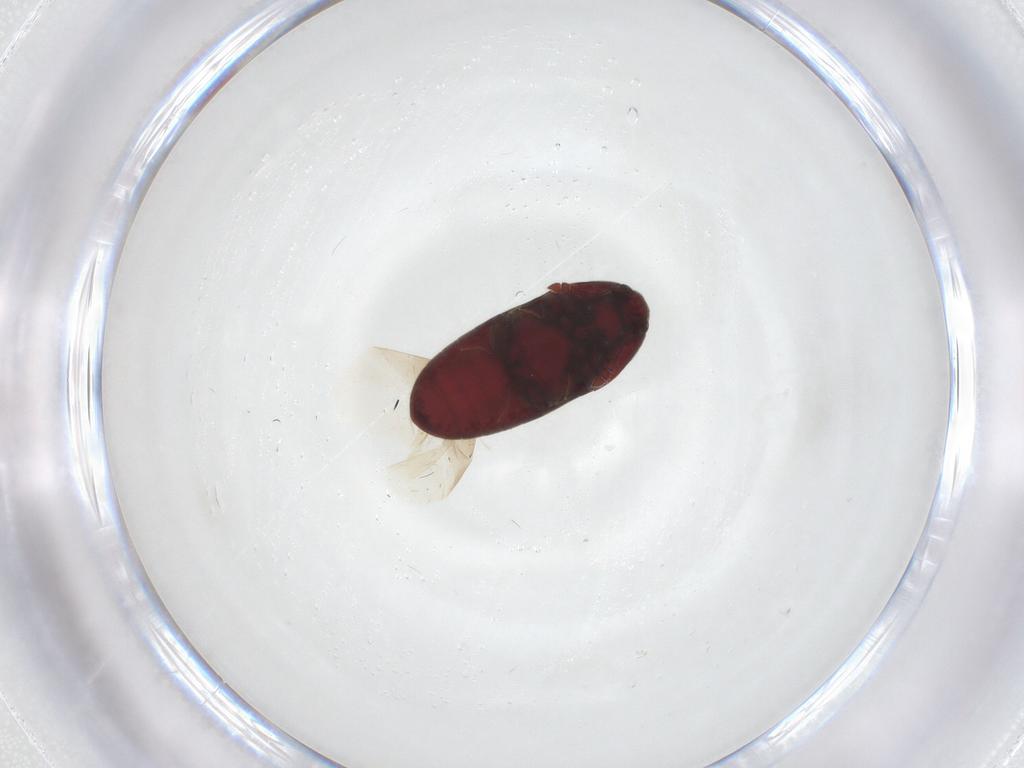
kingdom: Animalia
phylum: Arthropoda
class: Insecta
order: Coleoptera
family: Throscidae
